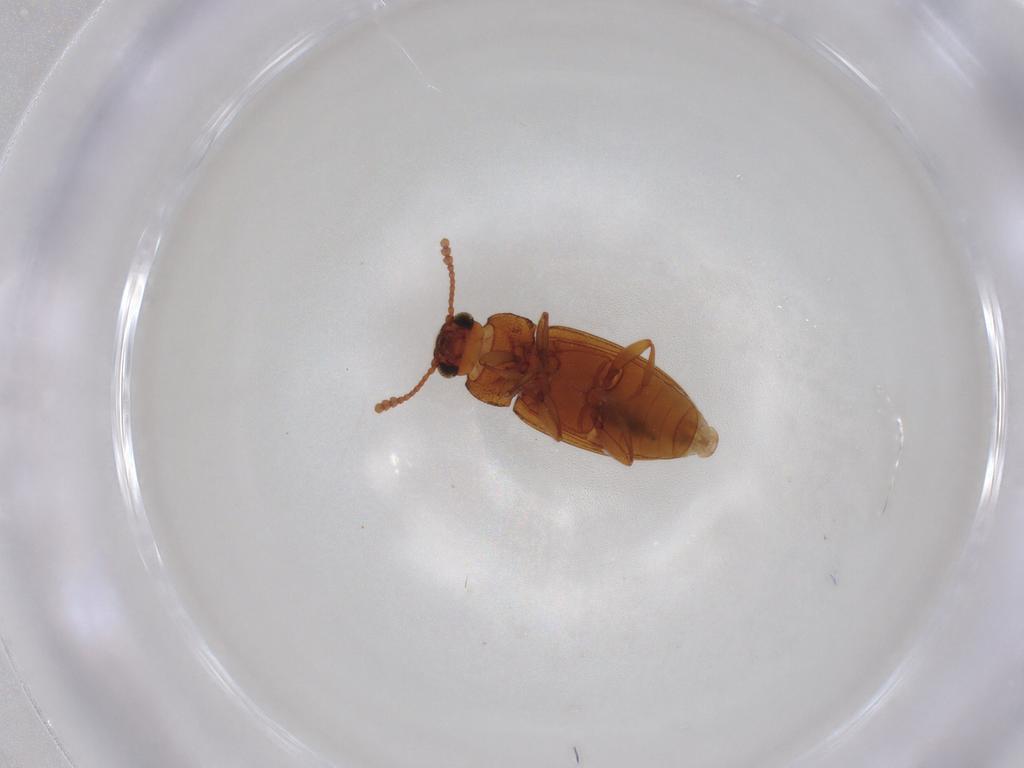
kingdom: Animalia
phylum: Arthropoda
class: Insecta
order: Coleoptera
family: Erotylidae
